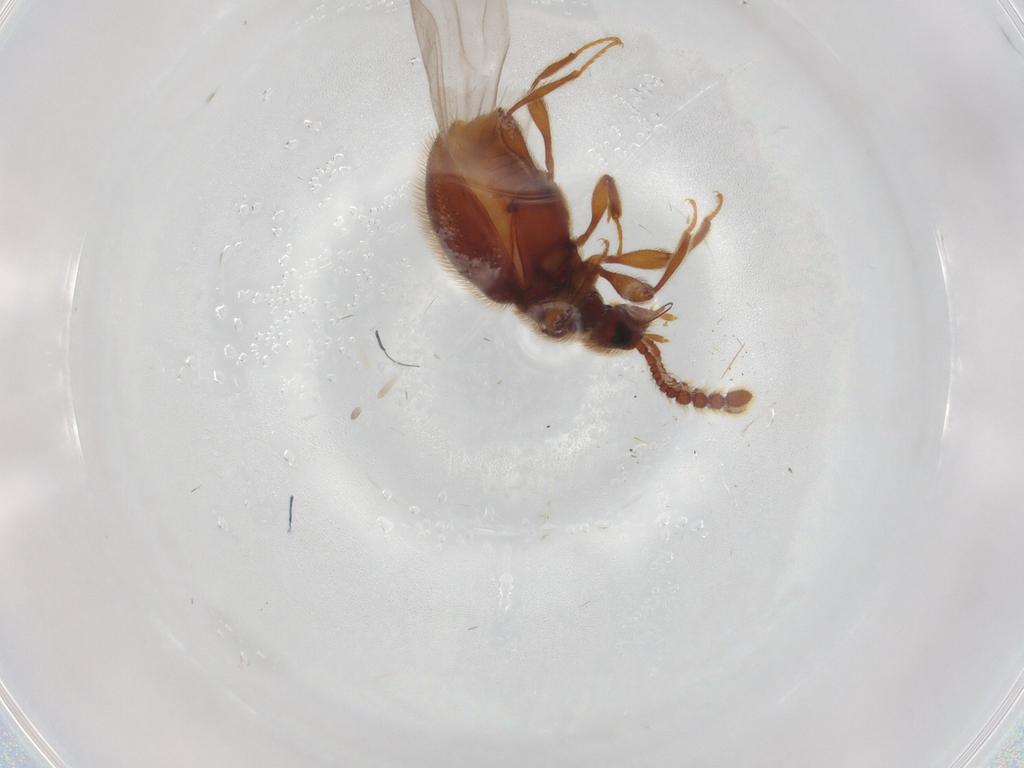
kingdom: Animalia
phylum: Arthropoda
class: Insecta
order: Coleoptera
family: Staphylinidae
